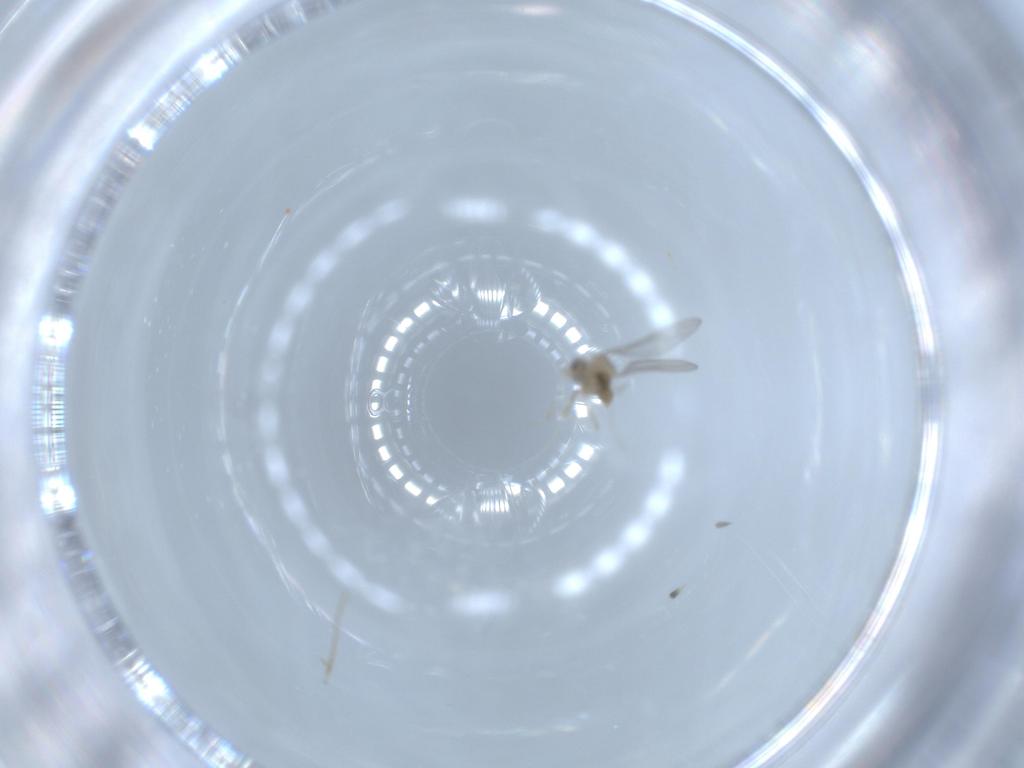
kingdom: Animalia
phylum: Arthropoda
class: Insecta
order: Diptera
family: Cecidomyiidae
